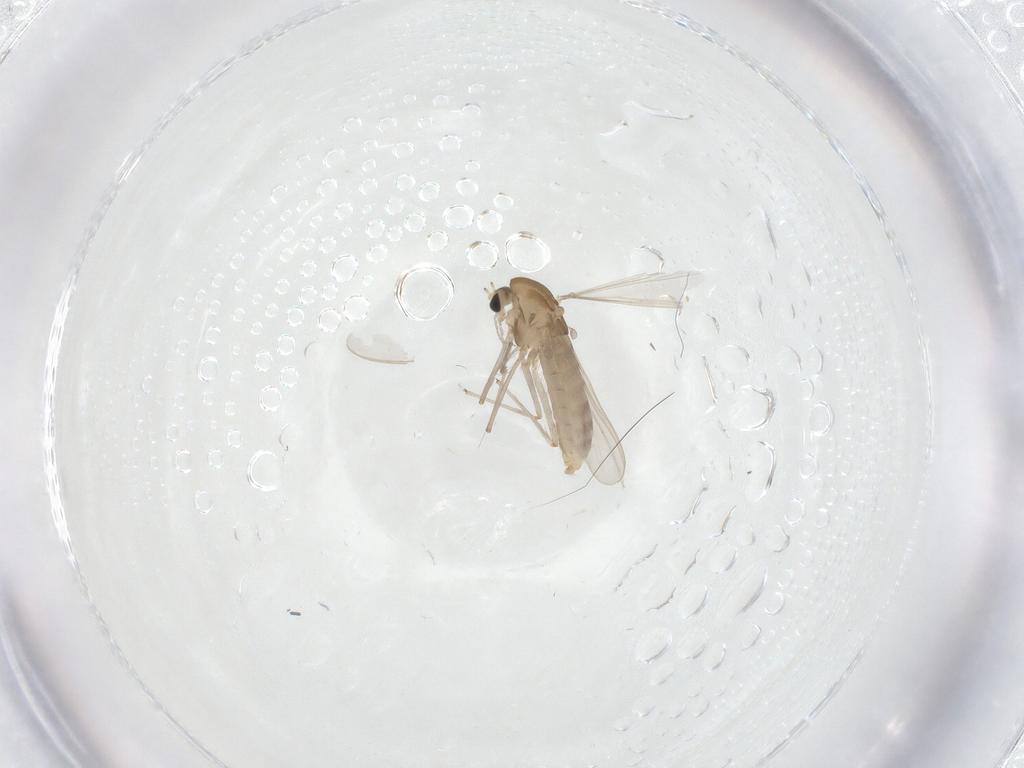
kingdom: Animalia
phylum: Arthropoda
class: Insecta
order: Diptera
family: Chironomidae
